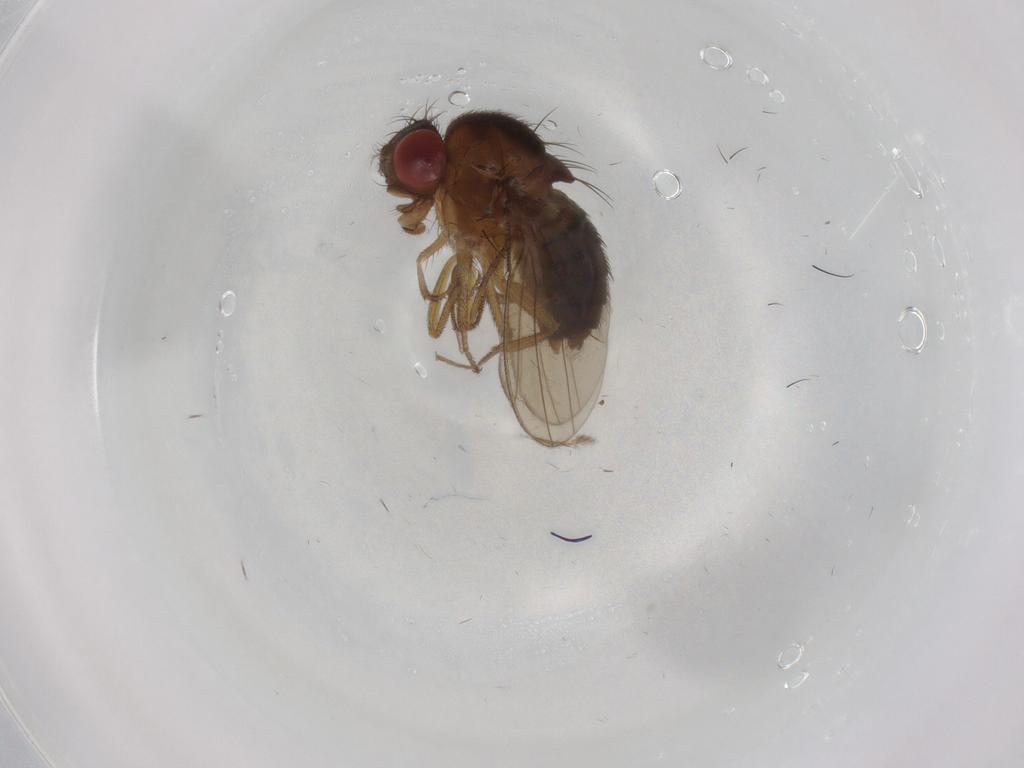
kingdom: Animalia
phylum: Arthropoda
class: Insecta
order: Diptera
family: Drosophilidae
